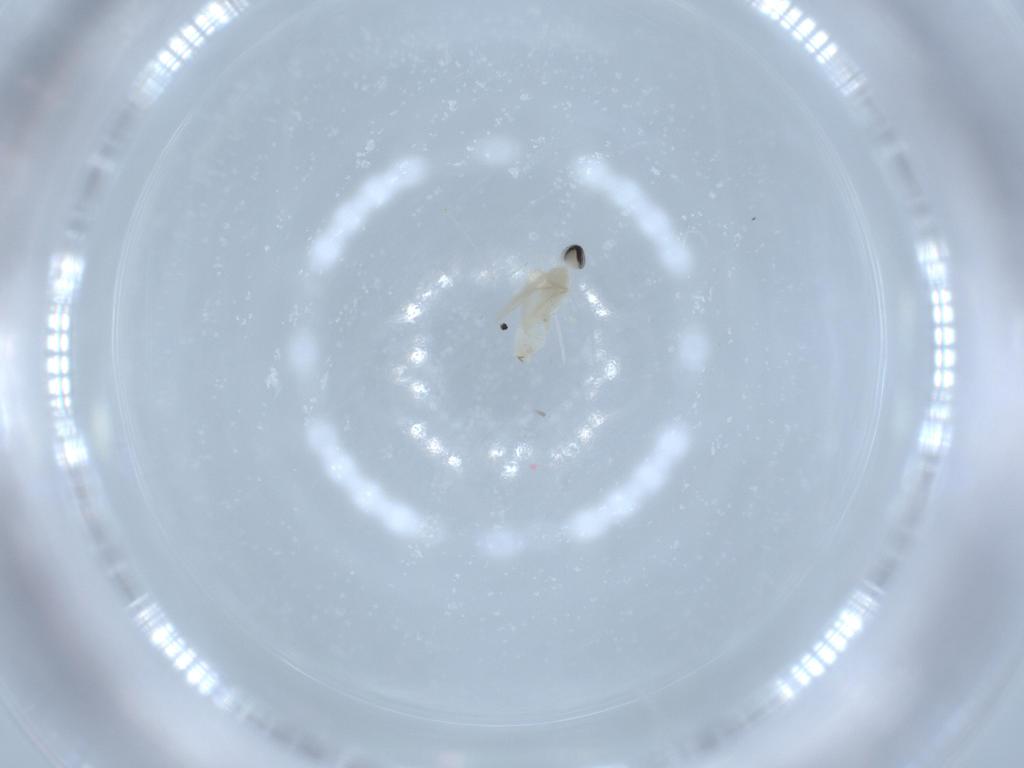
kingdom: Animalia
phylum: Arthropoda
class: Insecta
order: Diptera
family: Cecidomyiidae
